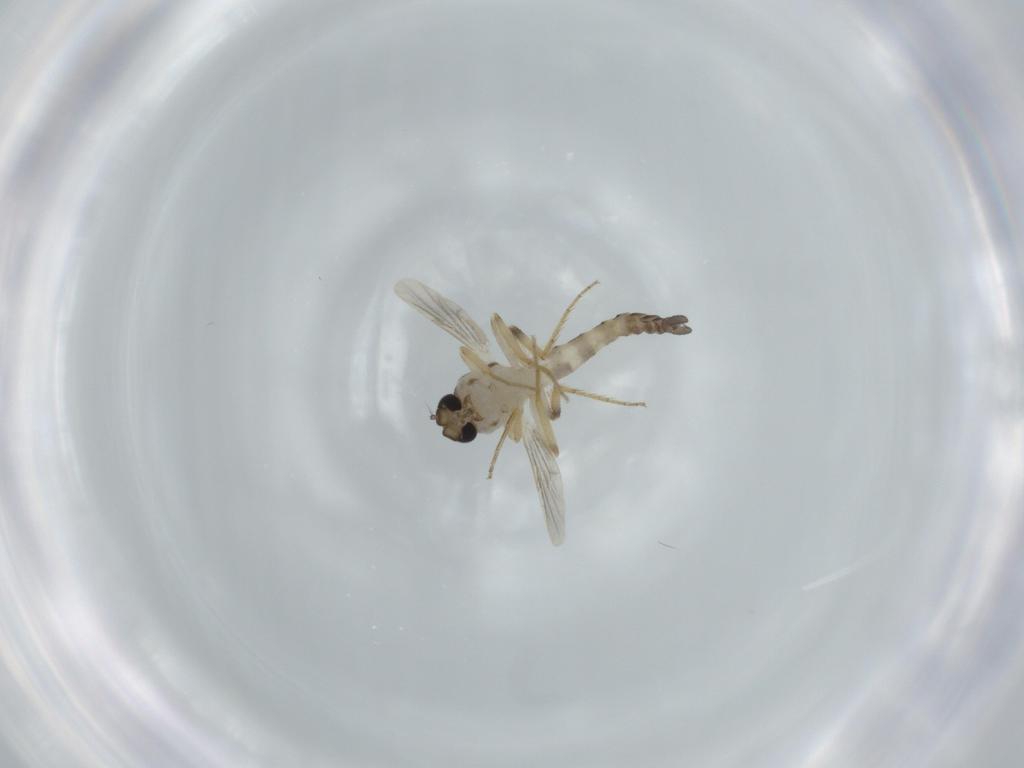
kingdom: Animalia
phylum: Arthropoda
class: Insecta
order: Diptera
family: Ceratopogonidae
